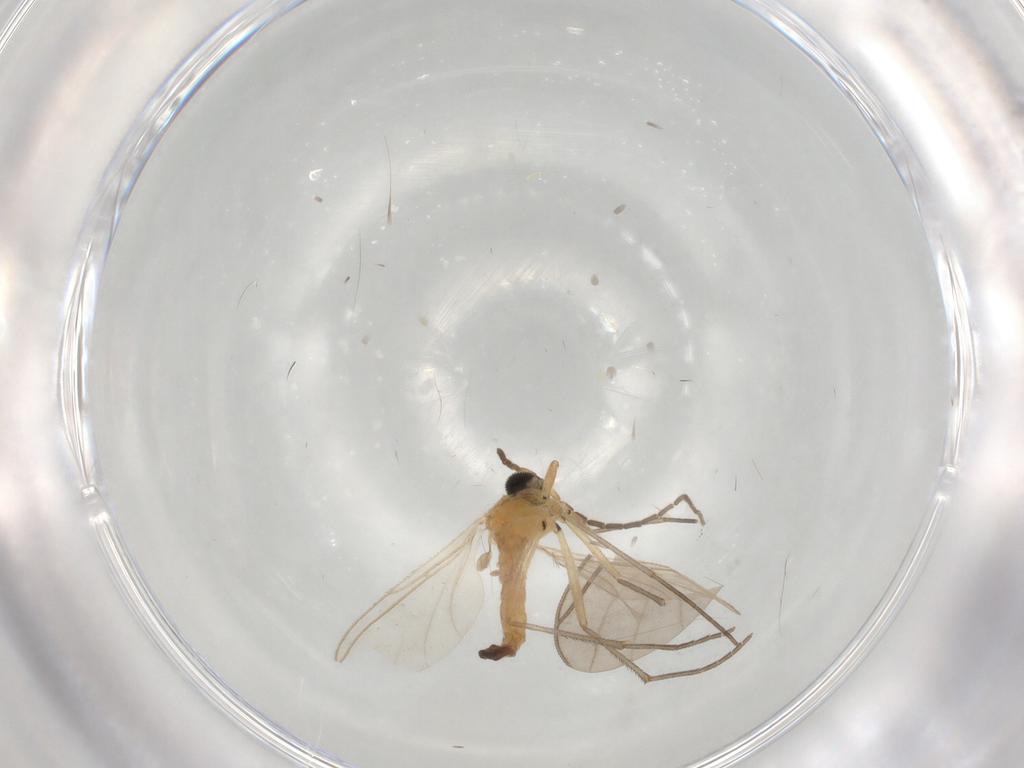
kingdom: Animalia
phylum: Arthropoda
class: Insecta
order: Diptera
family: Sciaridae
